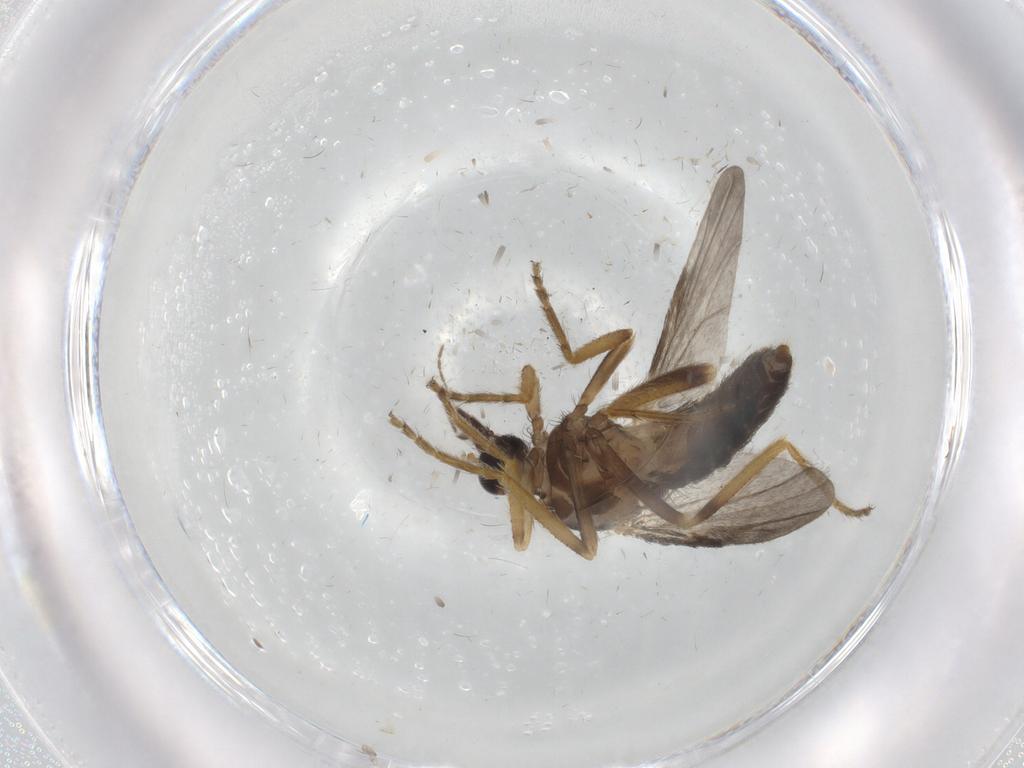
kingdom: Animalia
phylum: Arthropoda
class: Insecta
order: Diptera
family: Ceratopogonidae
